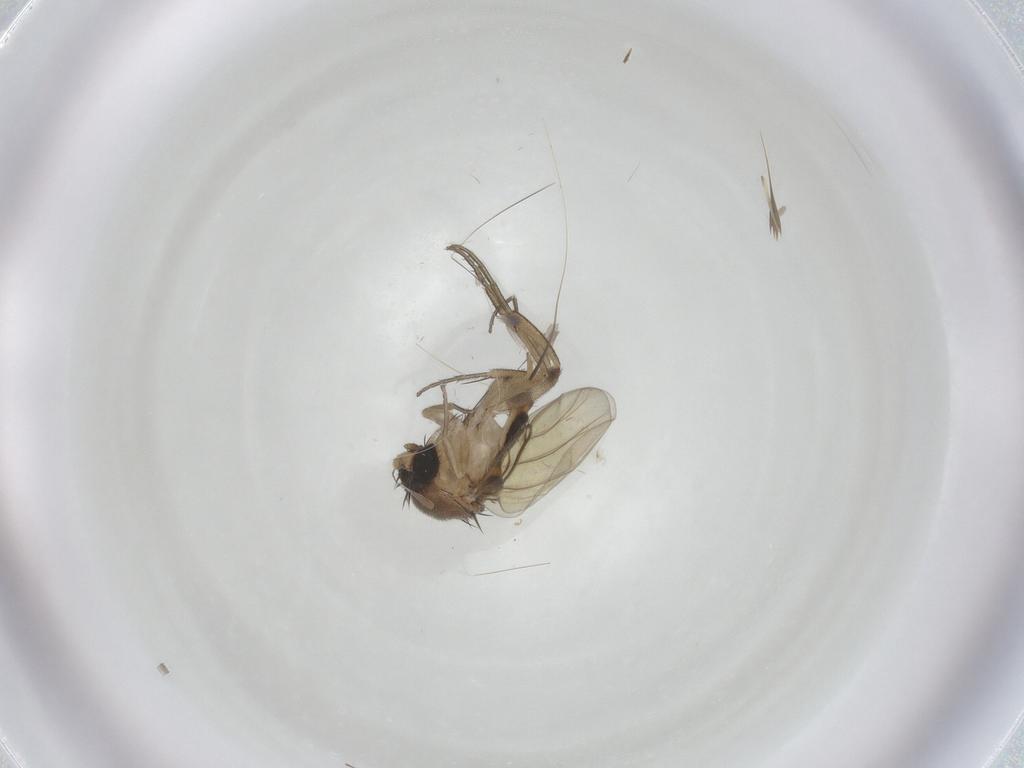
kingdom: Animalia
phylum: Arthropoda
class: Insecta
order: Diptera
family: Phoridae
